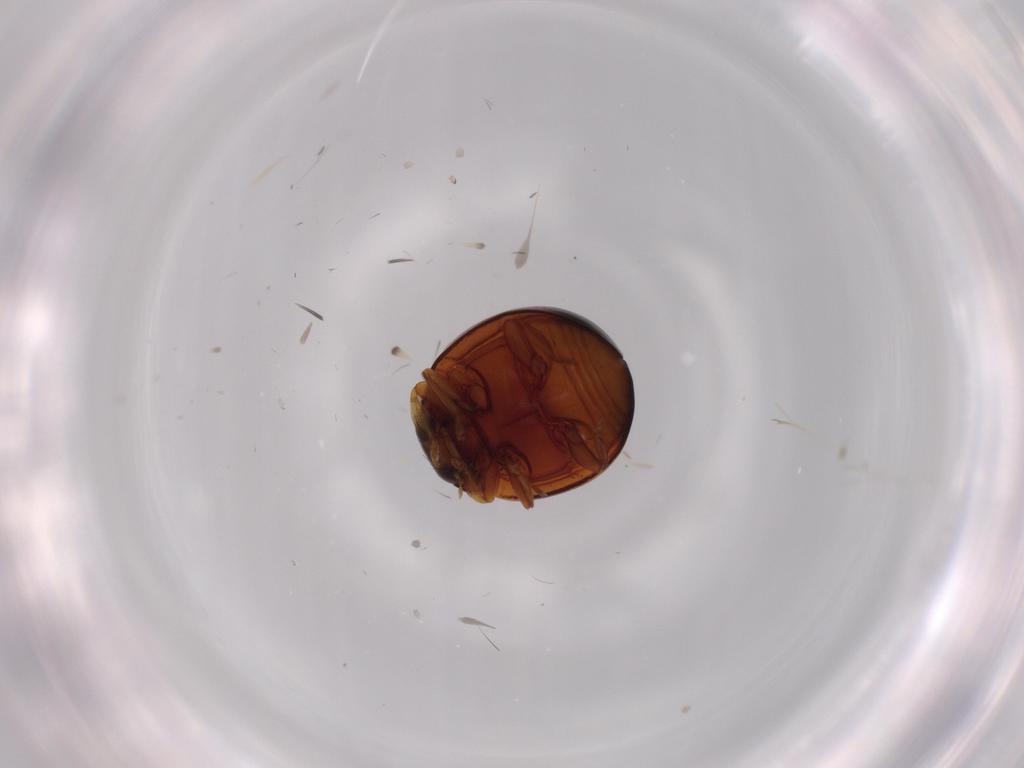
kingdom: Animalia
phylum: Arthropoda
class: Insecta
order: Coleoptera
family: Coccinellidae
